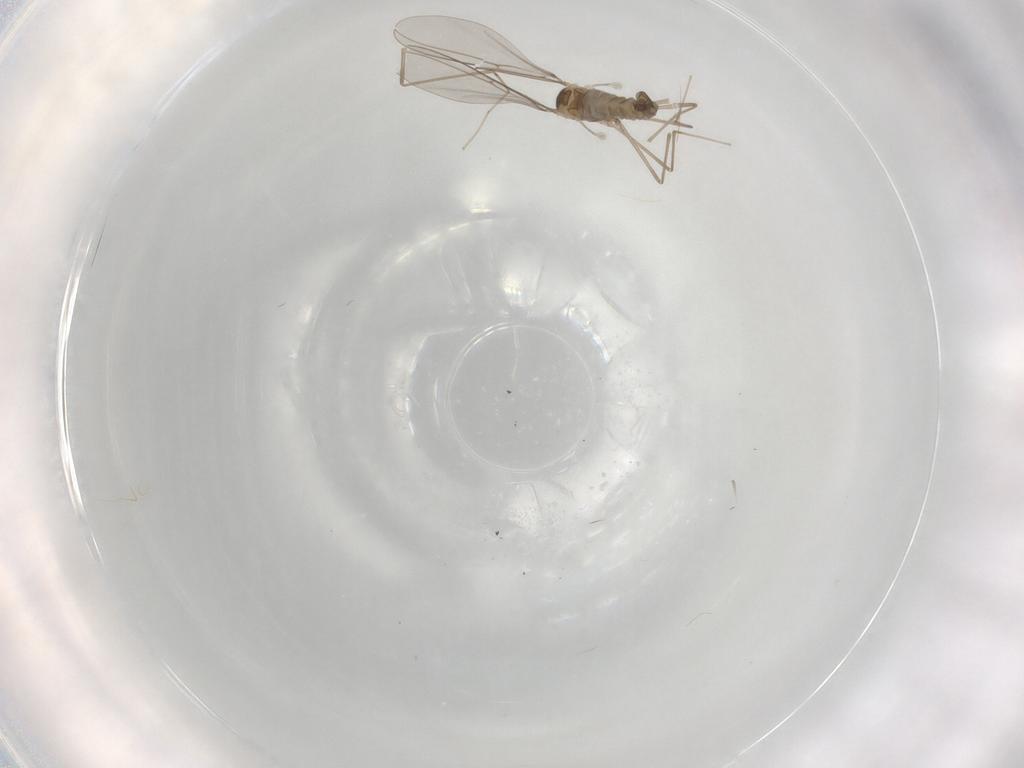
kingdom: Animalia
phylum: Arthropoda
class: Insecta
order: Diptera
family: Cecidomyiidae
